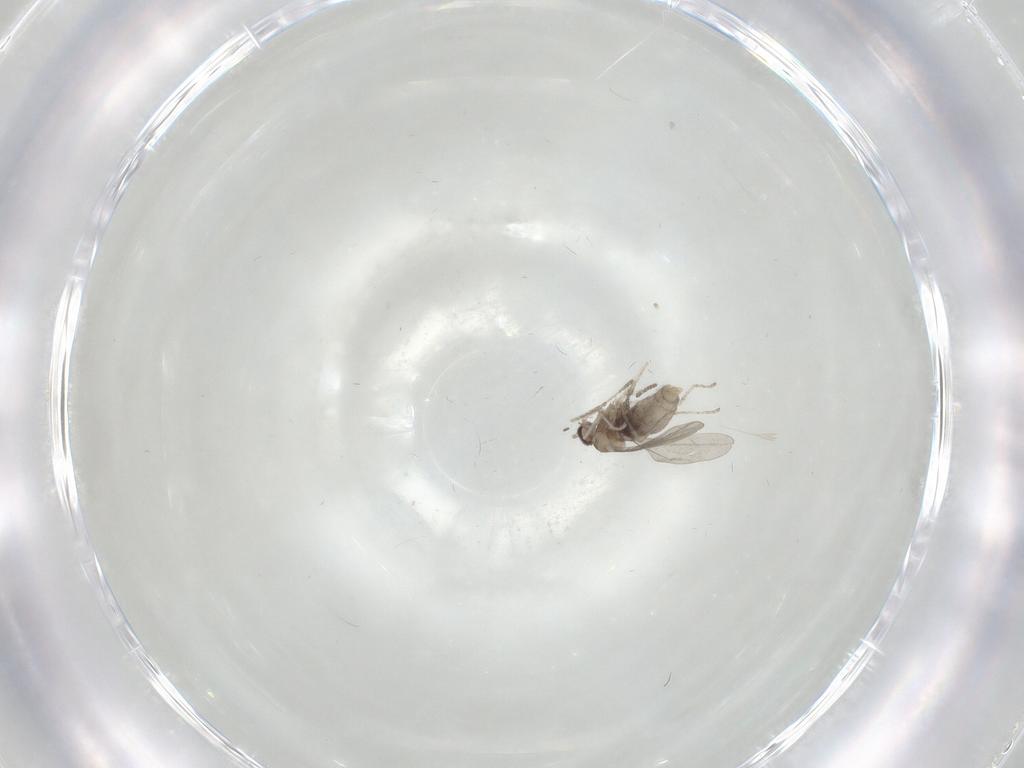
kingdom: Animalia
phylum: Arthropoda
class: Insecta
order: Diptera
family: Cecidomyiidae
